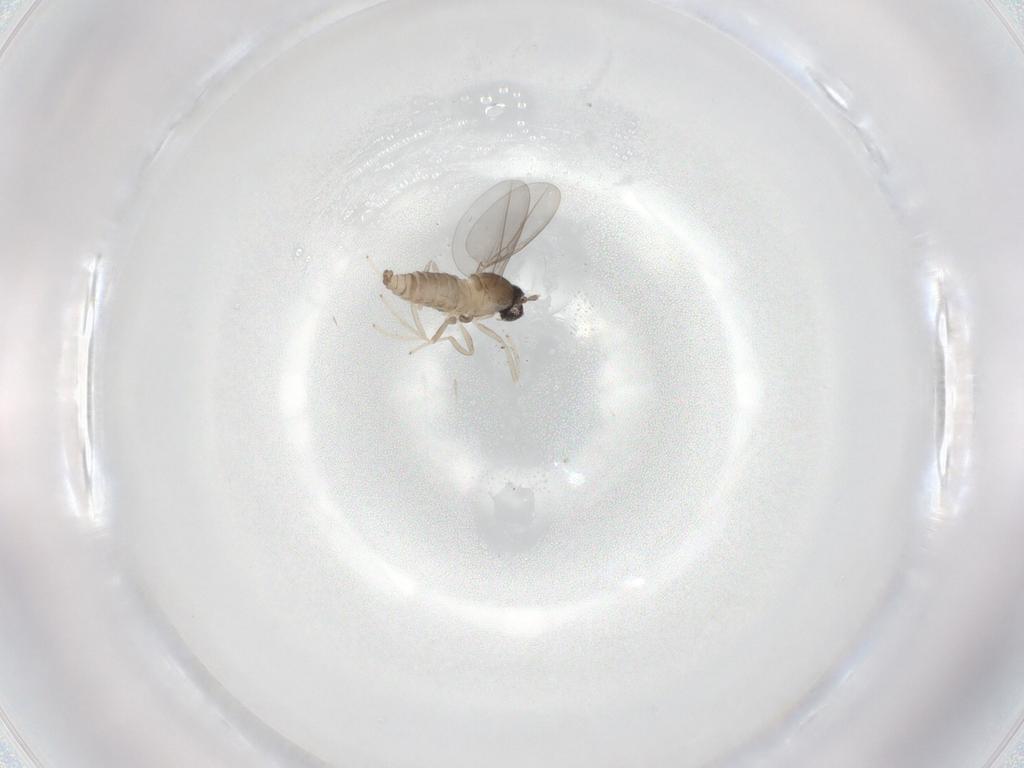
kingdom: Animalia
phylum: Arthropoda
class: Insecta
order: Diptera
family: Cecidomyiidae
